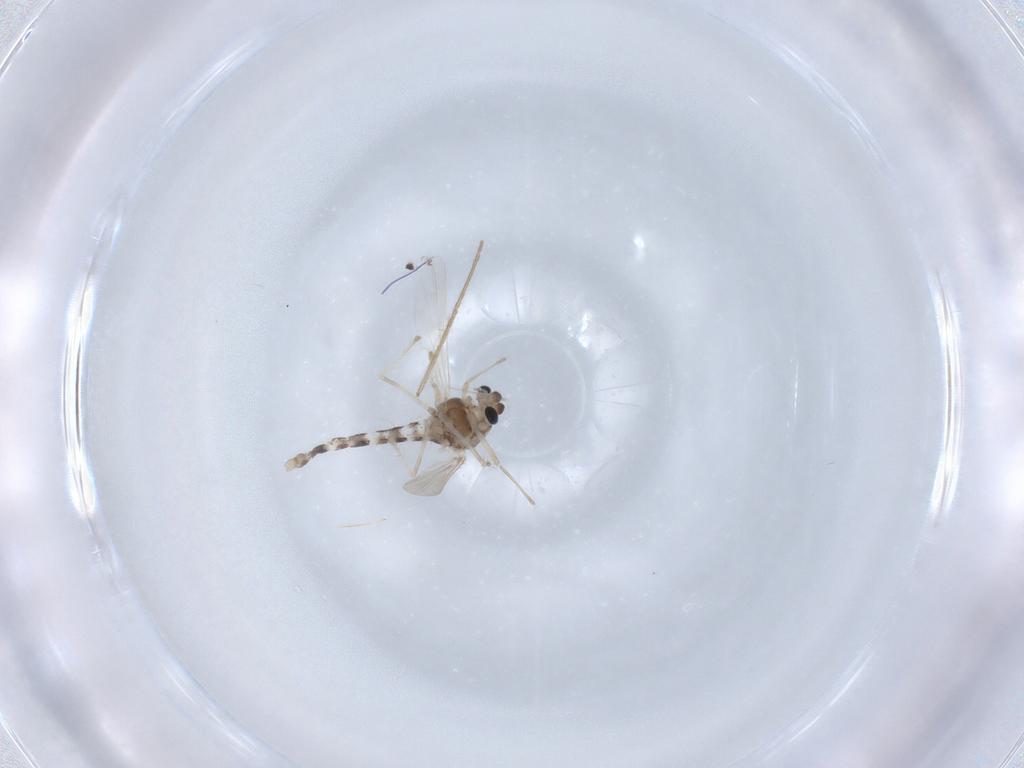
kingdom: Animalia
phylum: Arthropoda
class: Insecta
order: Diptera
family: Chironomidae
